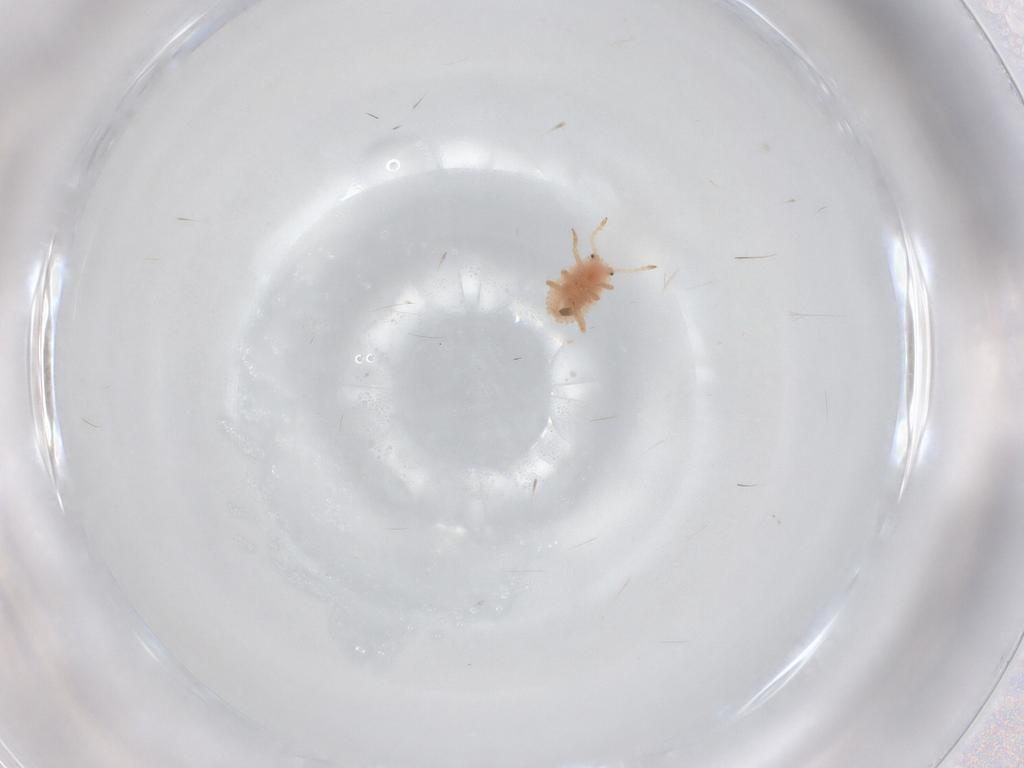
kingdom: Animalia
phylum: Arthropoda
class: Insecta
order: Hemiptera
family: Coccoidea_incertae_sedis
